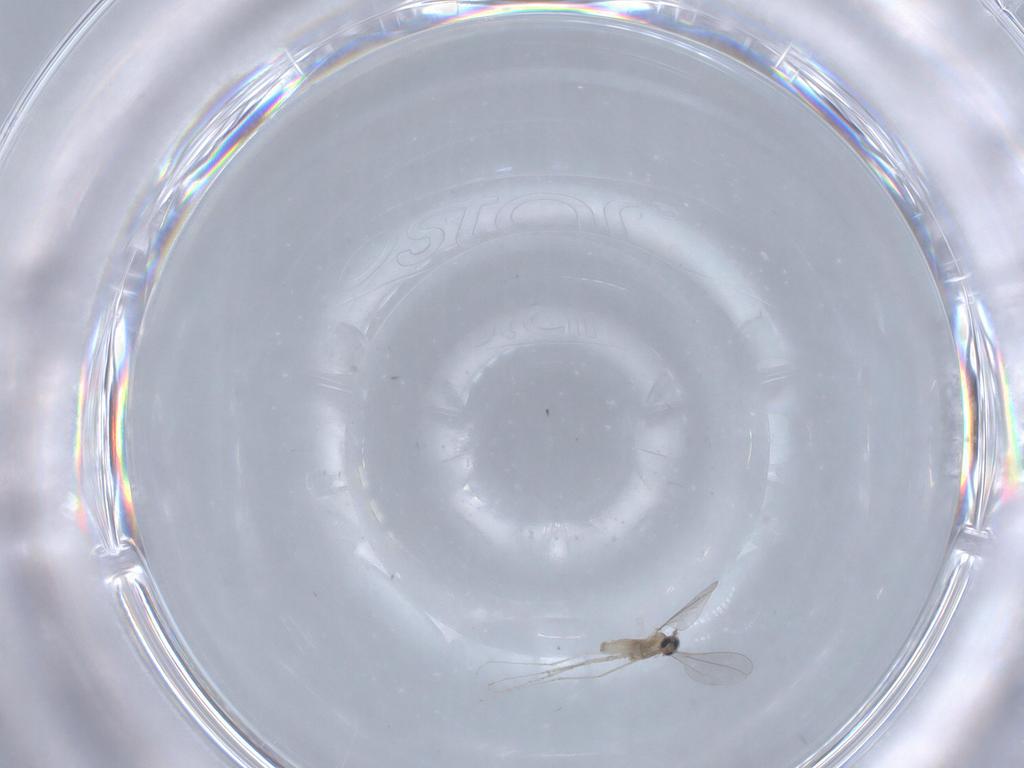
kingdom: Animalia
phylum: Arthropoda
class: Insecta
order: Diptera
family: Cecidomyiidae
